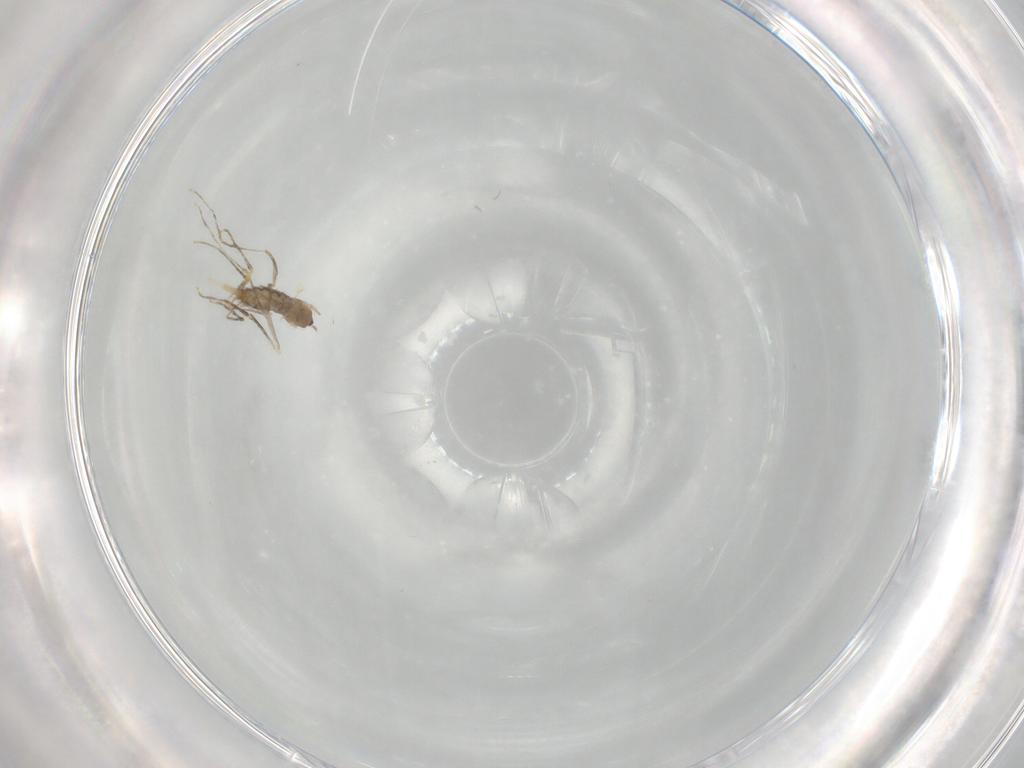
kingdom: Animalia
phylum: Arthropoda
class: Insecta
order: Diptera
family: Cecidomyiidae
